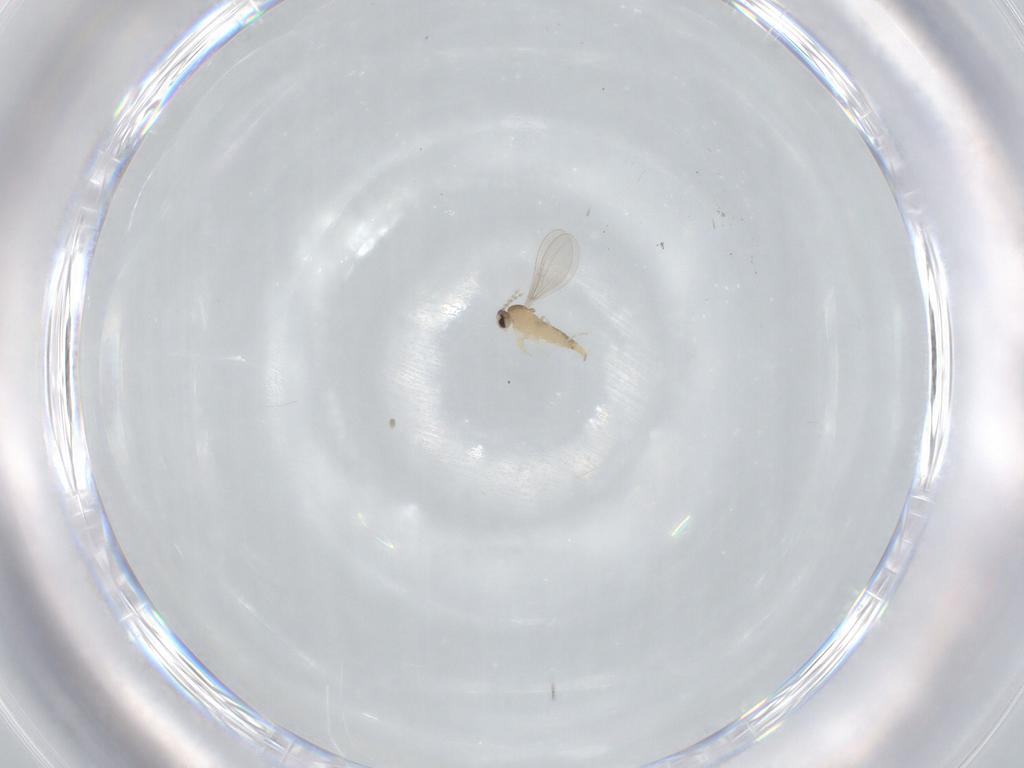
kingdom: Animalia
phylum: Arthropoda
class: Insecta
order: Diptera
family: Cecidomyiidae
